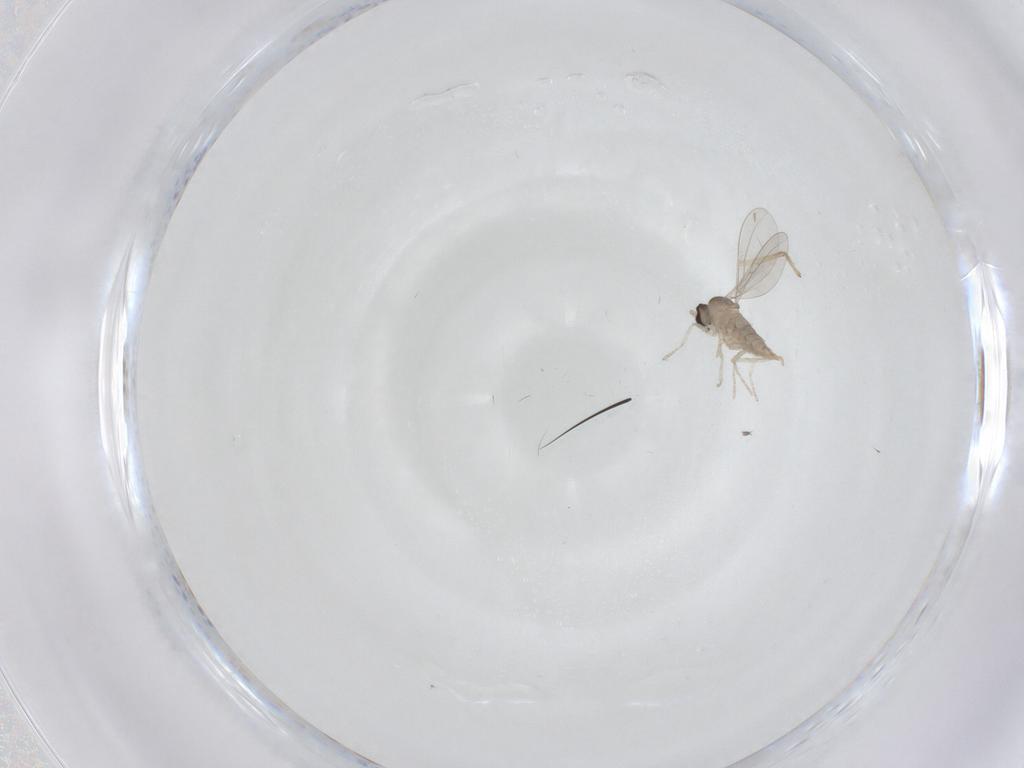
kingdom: Animalia
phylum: Arthropoda
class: Insecta
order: Diptera
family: Cecidomyiidae
